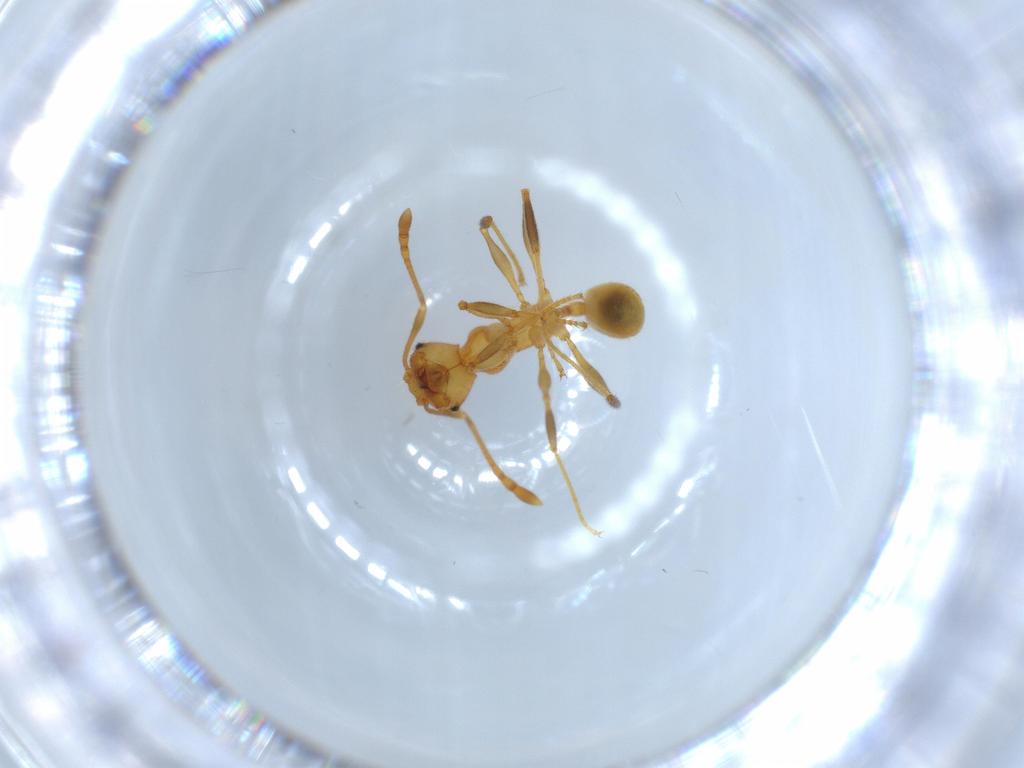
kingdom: Animalia
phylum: Arthropoda
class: Insecta
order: Hymenoptera
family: Formicidae
